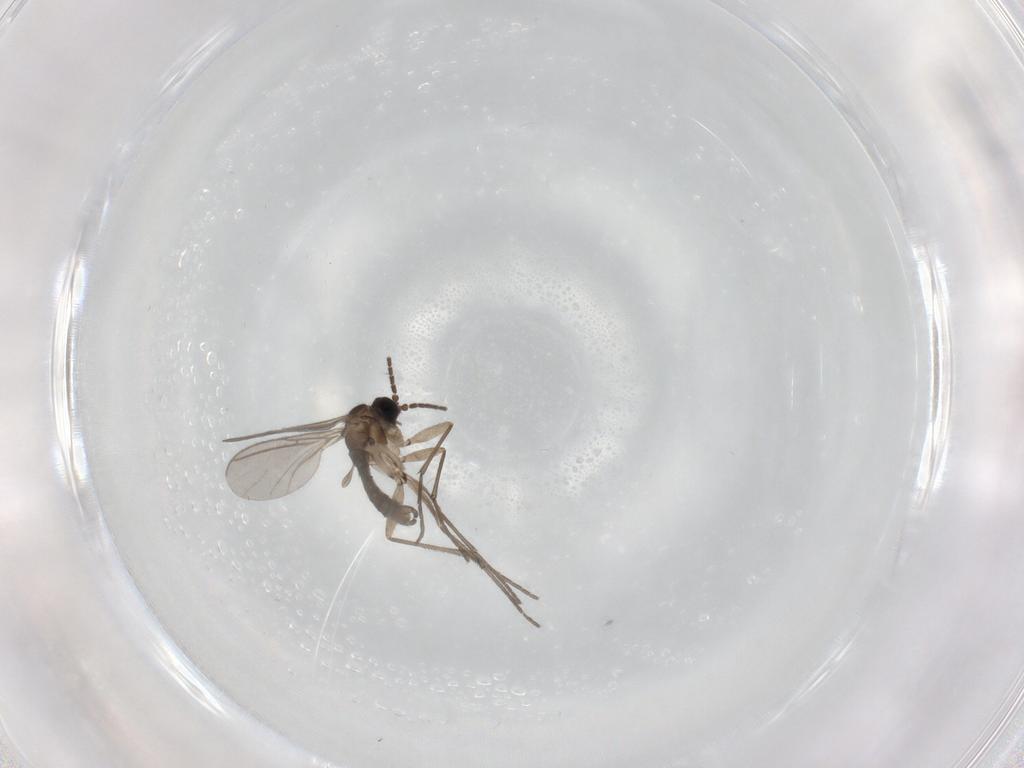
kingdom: Animalia
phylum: Arthropoda
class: Insecta
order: Diptera
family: Sciaridae
